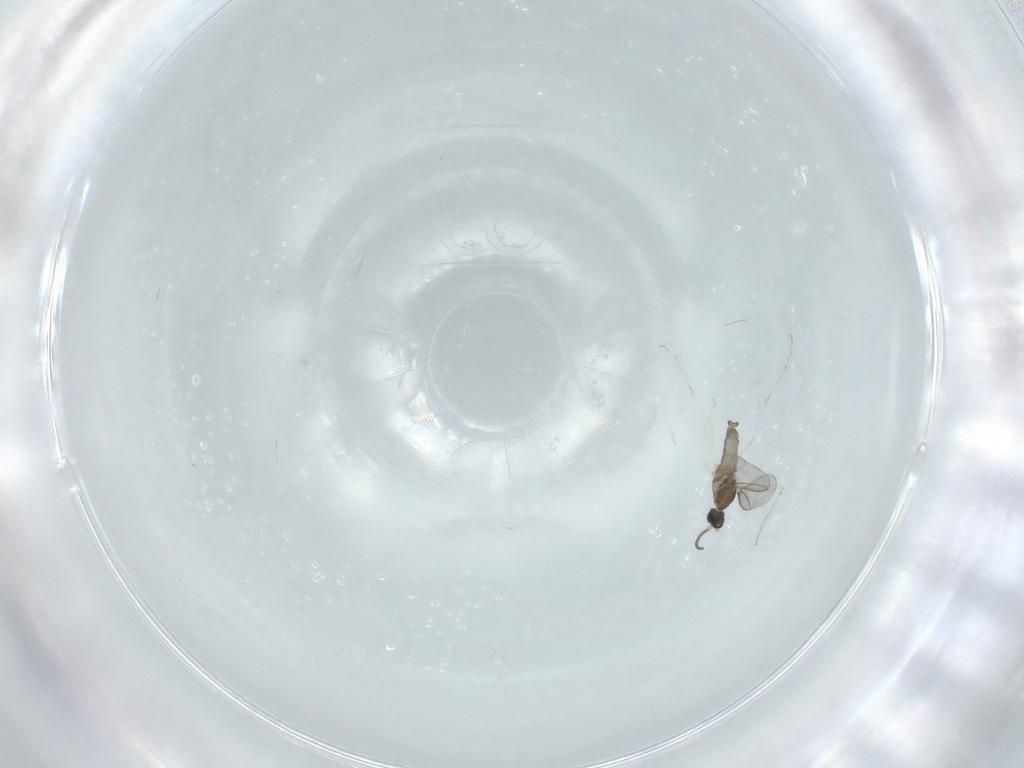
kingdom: Animalia
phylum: Arthropoda
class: Insecta
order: Diptera
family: Cecidomyiidae
